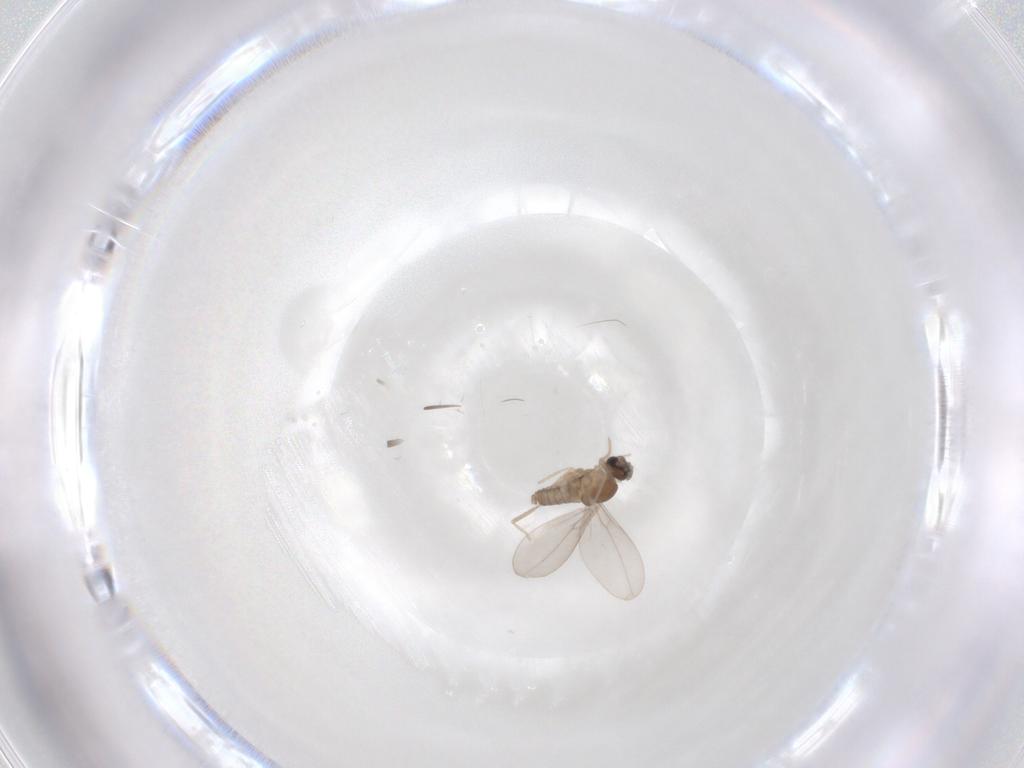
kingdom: Animalia
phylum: Arthropoda
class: Insecta
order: Diptera
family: Cecidomyiidae
